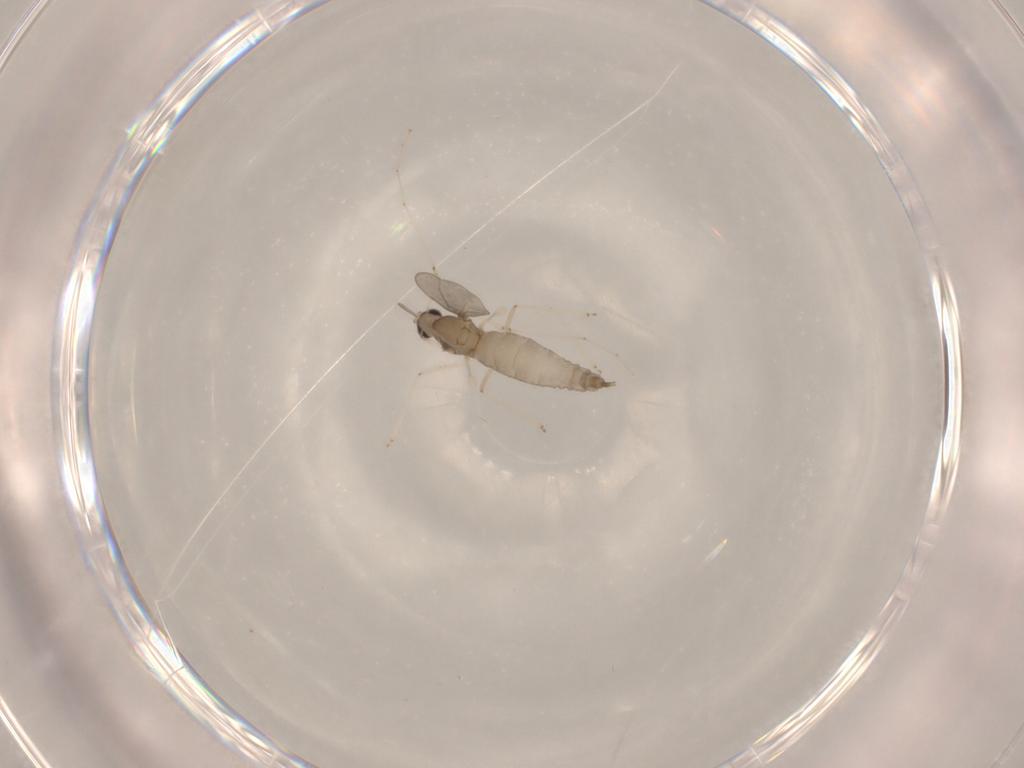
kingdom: Animalia
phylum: Arthropoda
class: Insecta
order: Diptera
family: Cecidomyiidae
